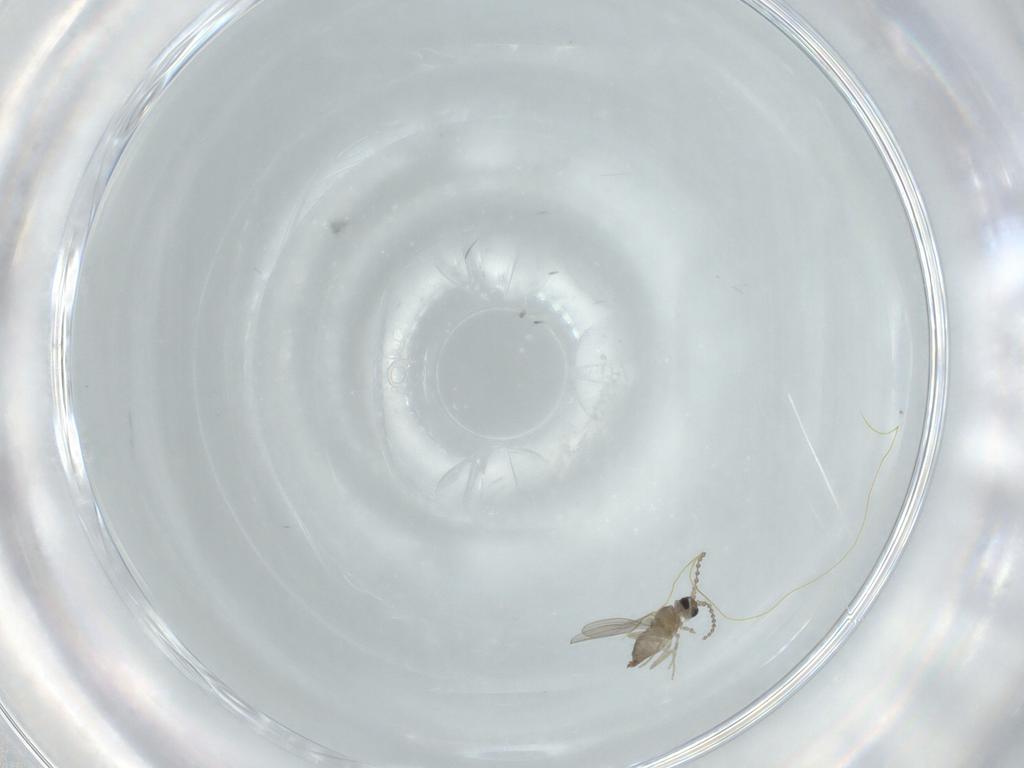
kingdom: Animalia
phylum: Arthropoda
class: Insecta
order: Diptera
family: Cecidomyiidae
